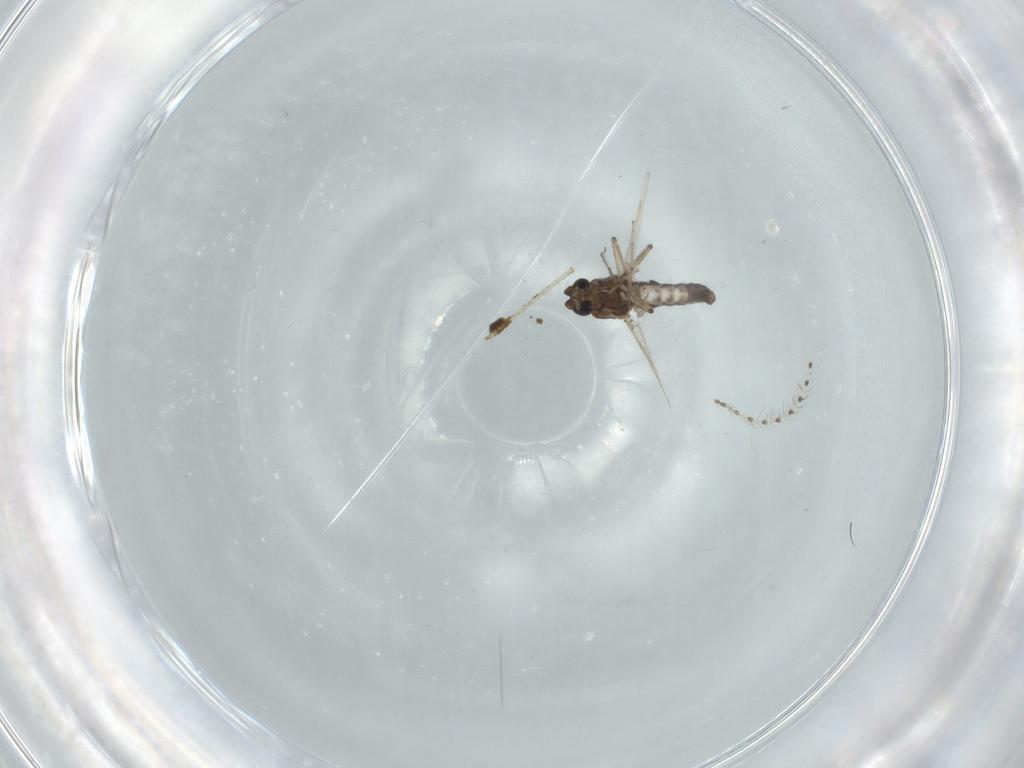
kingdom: Animalia
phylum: Arthropoda
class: Insecta
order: Diptera
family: Ceratopogonidae
